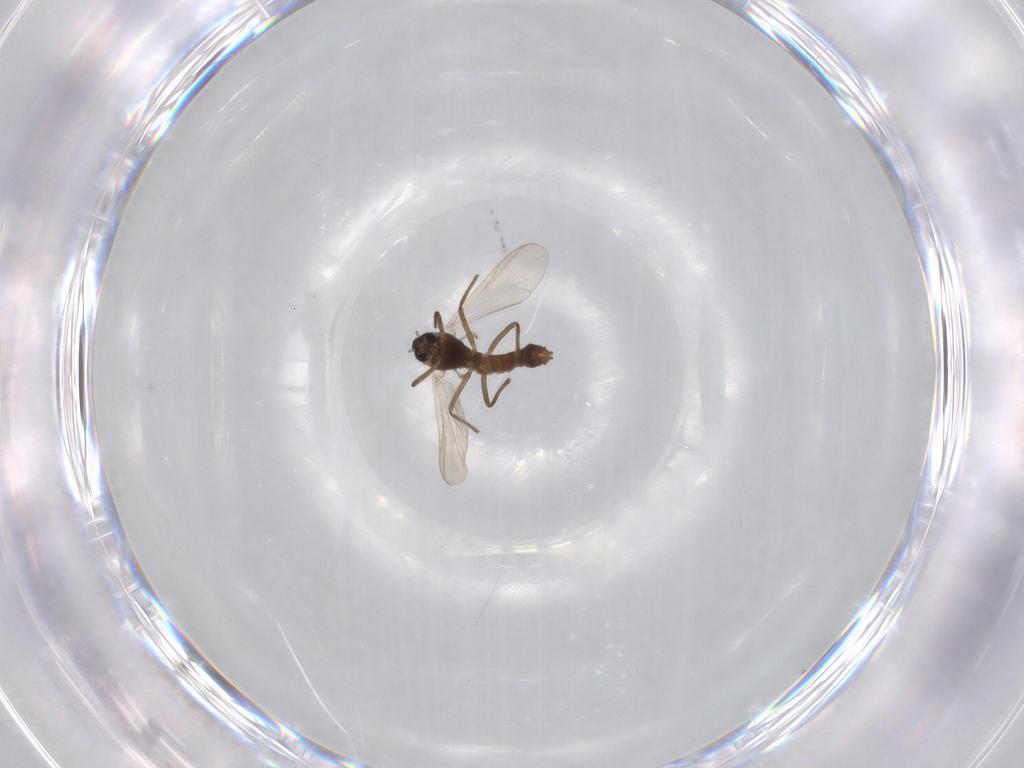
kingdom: Animalia
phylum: Arthropoda
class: Insecta
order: Diptera
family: Chironomidae
